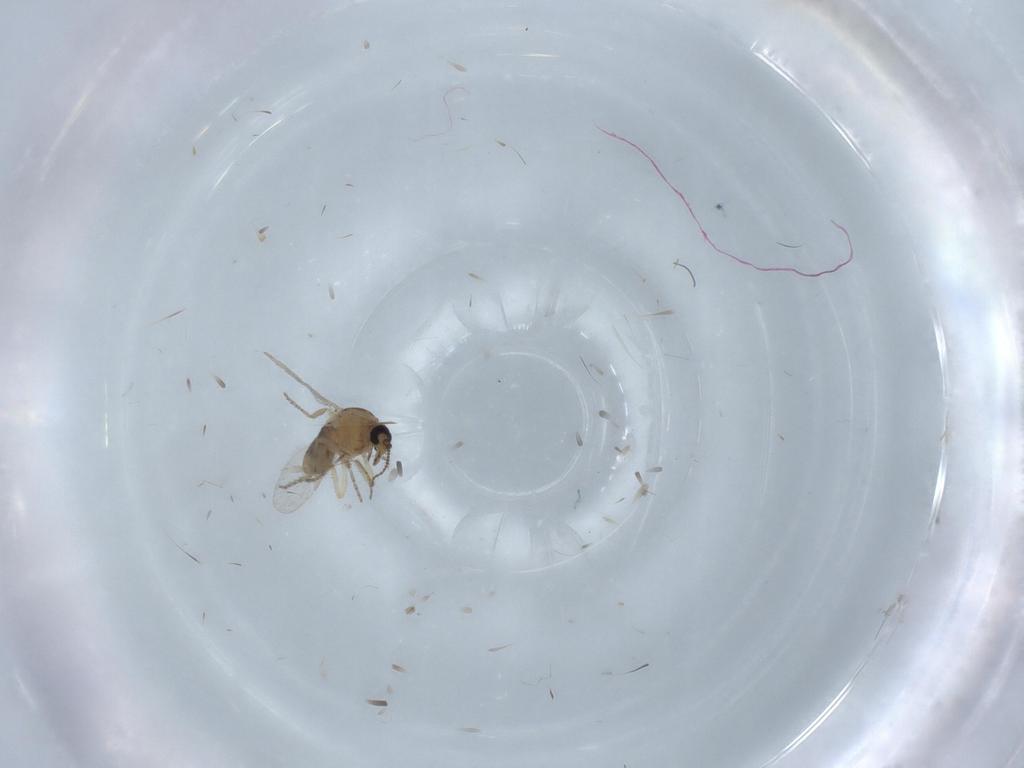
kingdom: Animalia
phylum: Arthropoda
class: Insecta
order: Diptera
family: Ceratopogonidae
